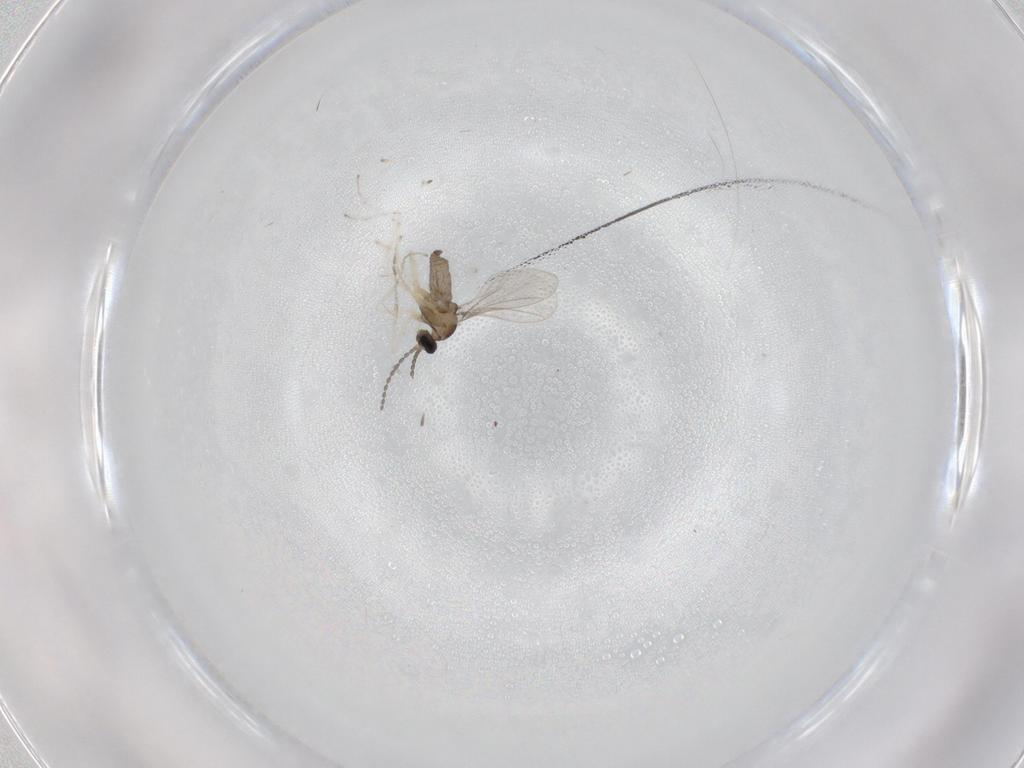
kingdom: Animalia
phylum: Arthropoda
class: Insecta
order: Diptera
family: Cecidomyiidae
